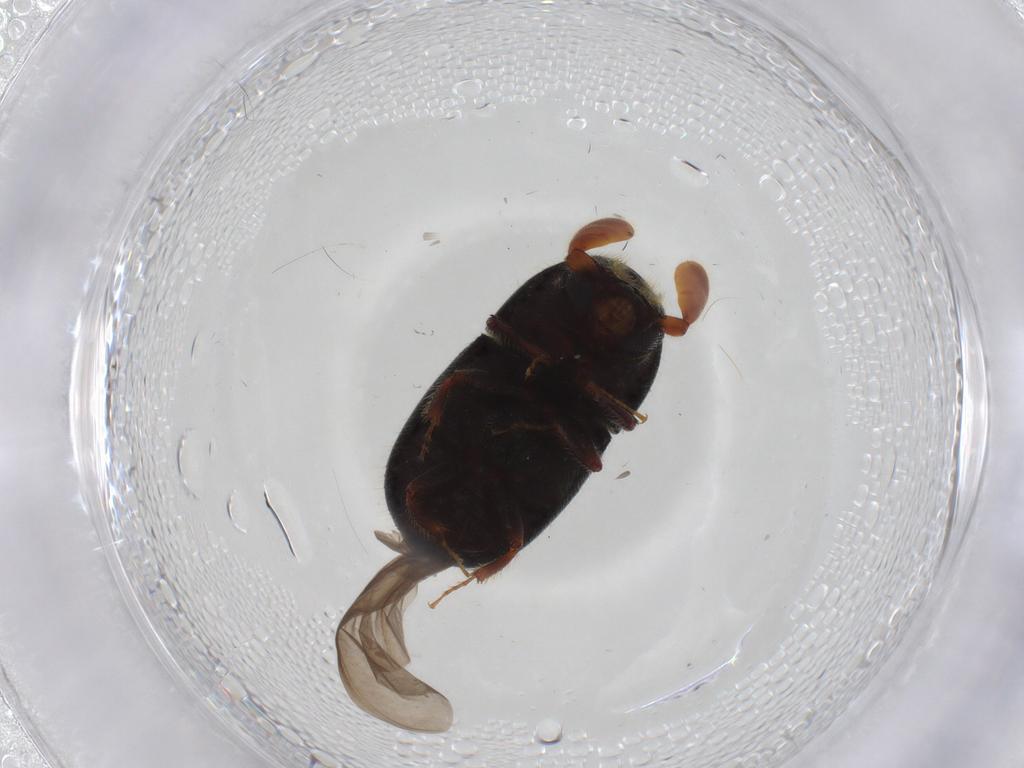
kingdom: Animalia
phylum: Arthropoda
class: Insecta
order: Coleoptera
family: Curculionidae
